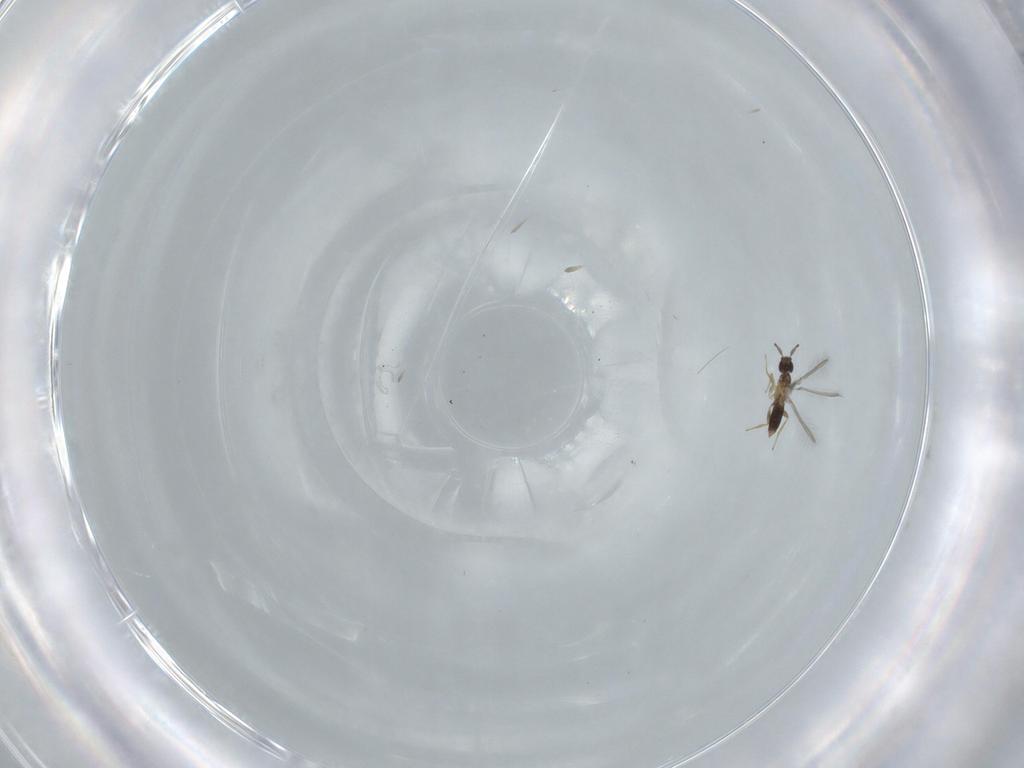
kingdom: Animalia
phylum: Arthropoda
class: Insecta
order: Hymenoptera
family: Mymaridae
